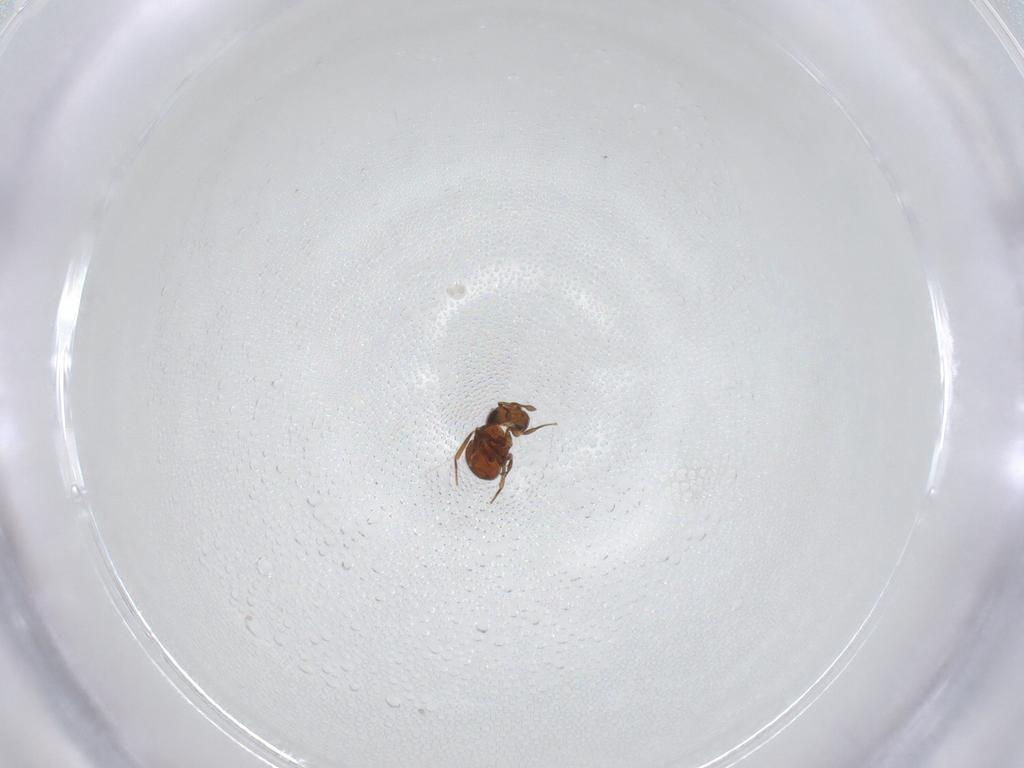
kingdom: Animalia
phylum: Arthropoda
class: Insecta
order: Hymenoptera
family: Scelionidae
